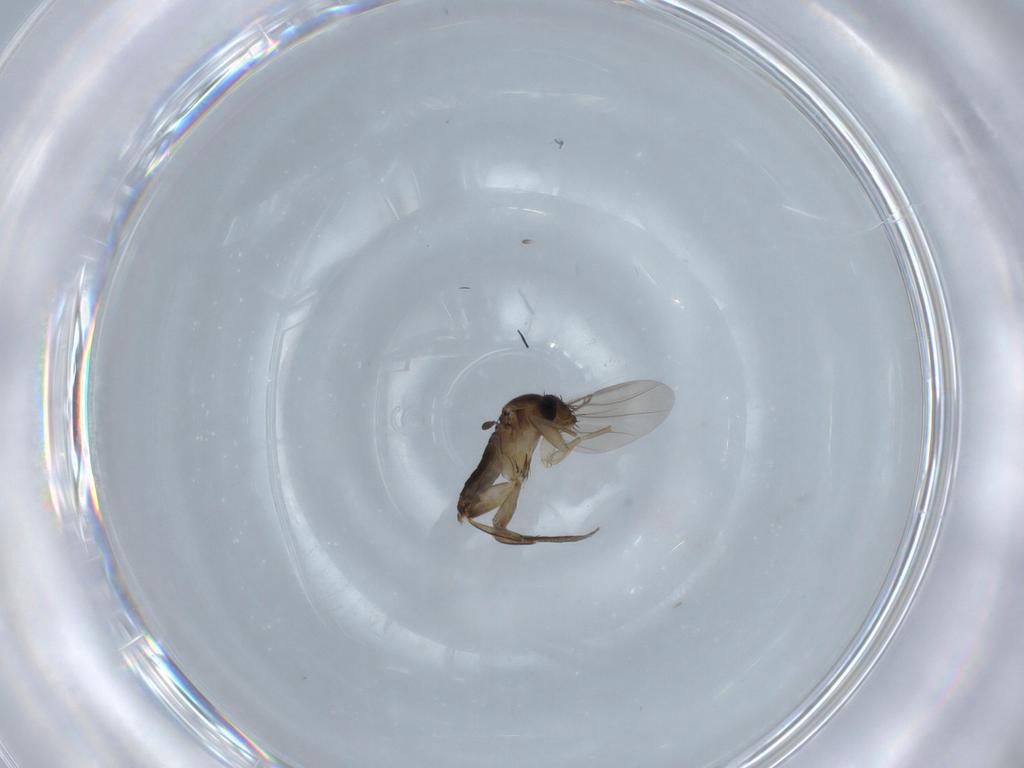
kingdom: Animalia
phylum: Arthropoda
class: Insecta
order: Diptera
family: Phoridae
